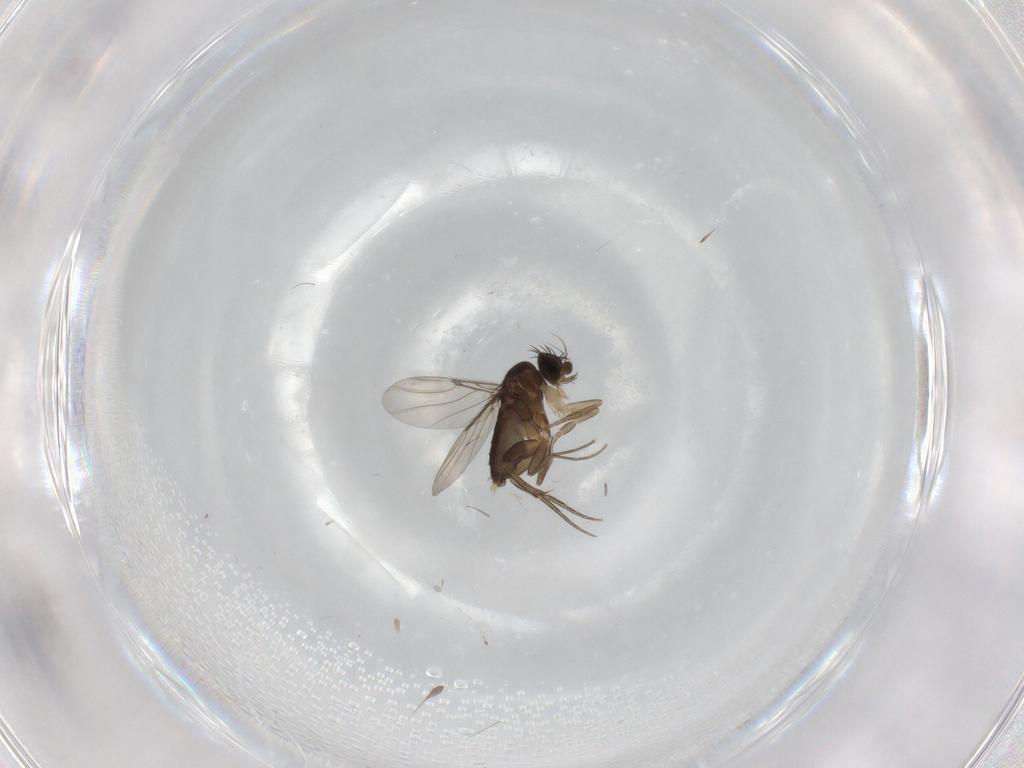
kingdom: Animalia
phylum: Arthropoda
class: Insecta
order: Diptera
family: Phoridae
